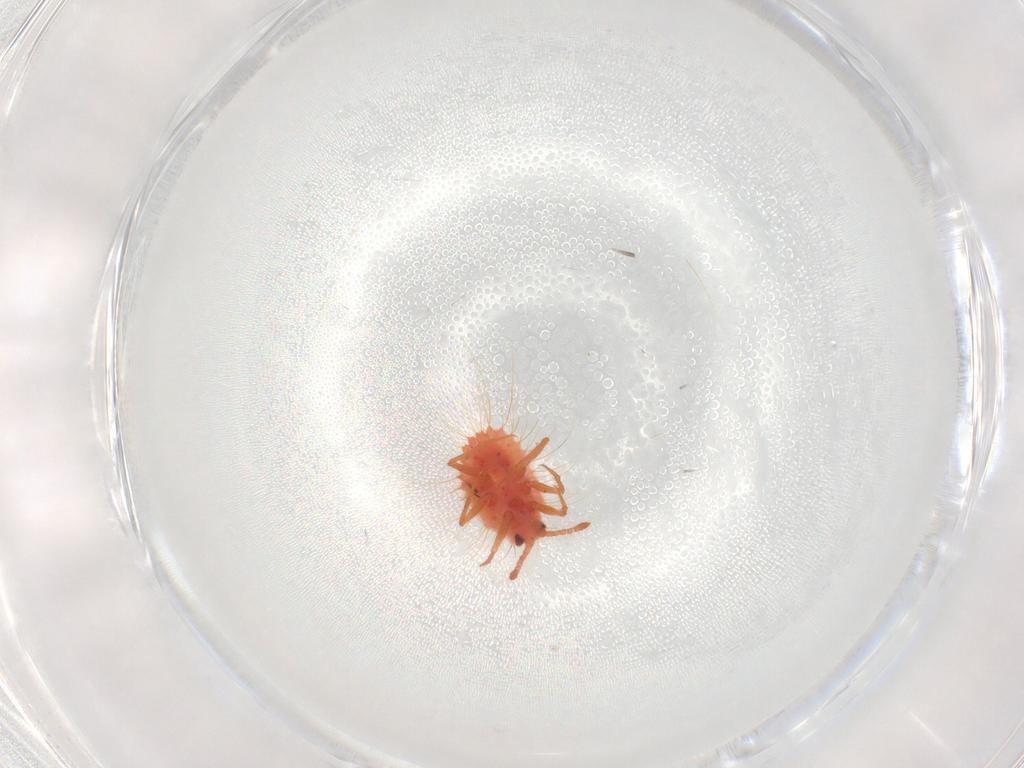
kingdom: Animalia
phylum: Arthropoda
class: Insecta
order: Hemiptera
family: Coccoidea_incertae_sedis
